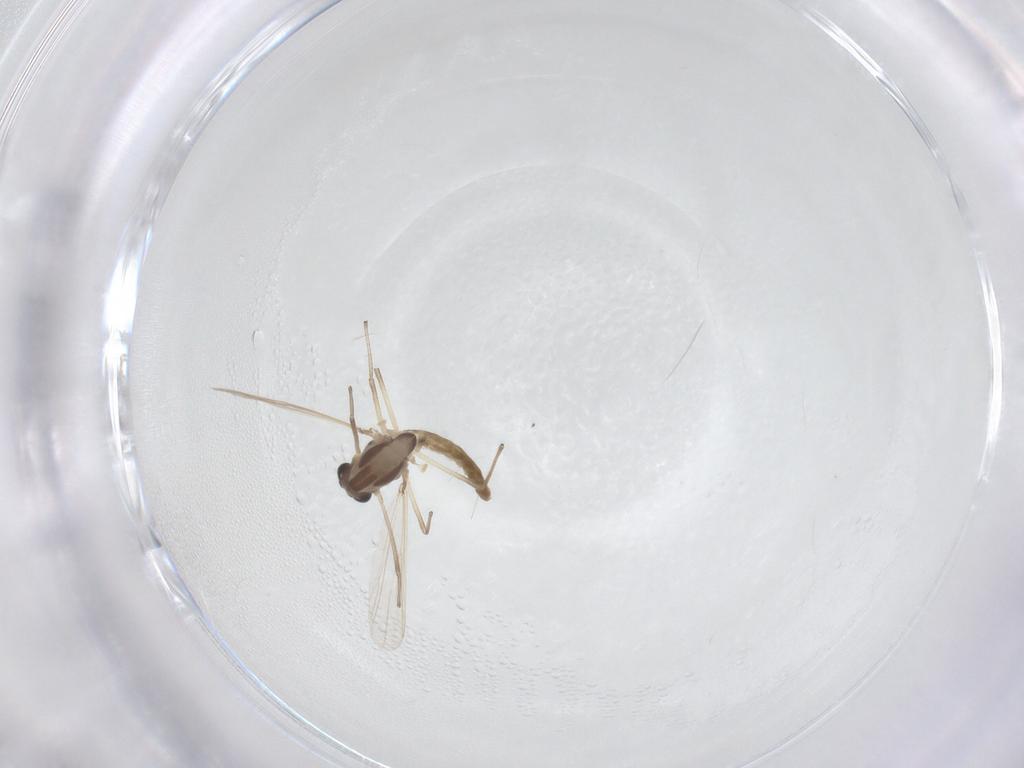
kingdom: Animalia
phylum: Arthropoda
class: Insecta
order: Diptera
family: Chironomidae
